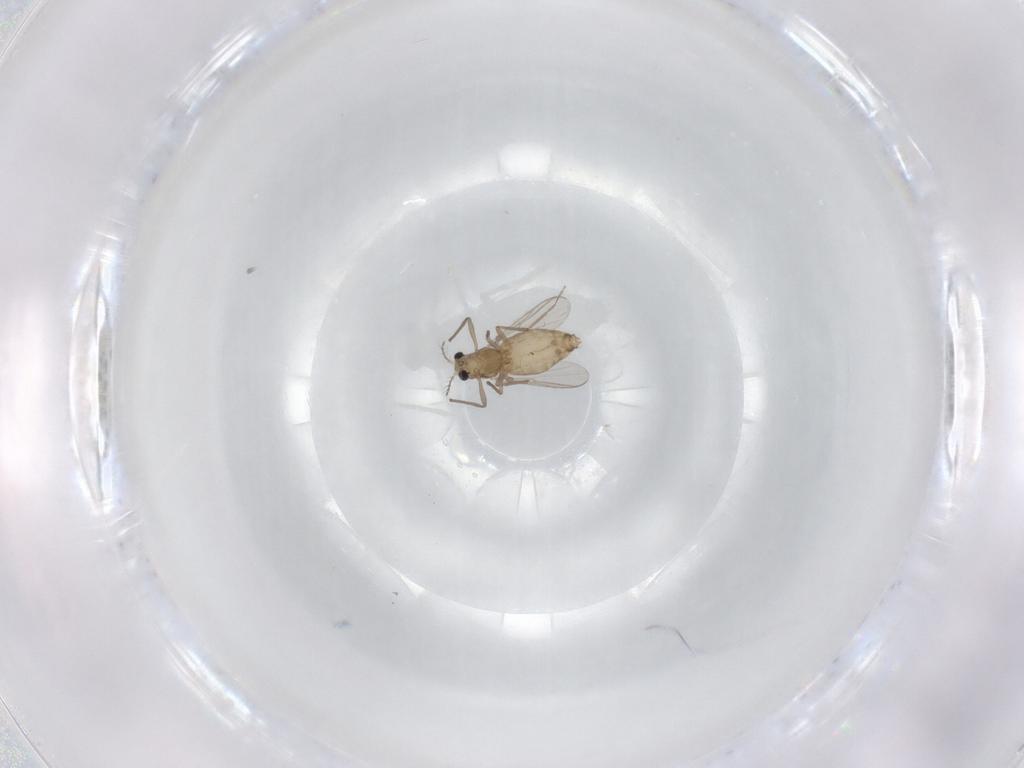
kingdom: Animalia
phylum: Arthropoda
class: Insecta
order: Diptera
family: Chironomidae
